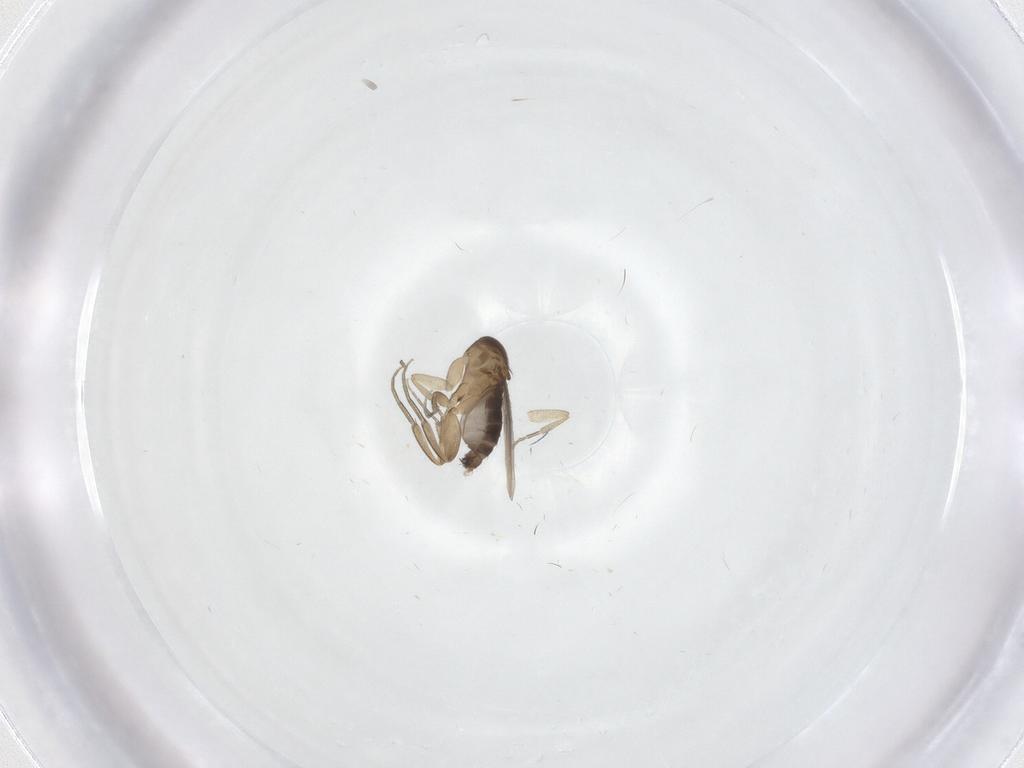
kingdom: Animalia
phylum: Arthropoda
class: Insecta
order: Diptera
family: Phoridae
